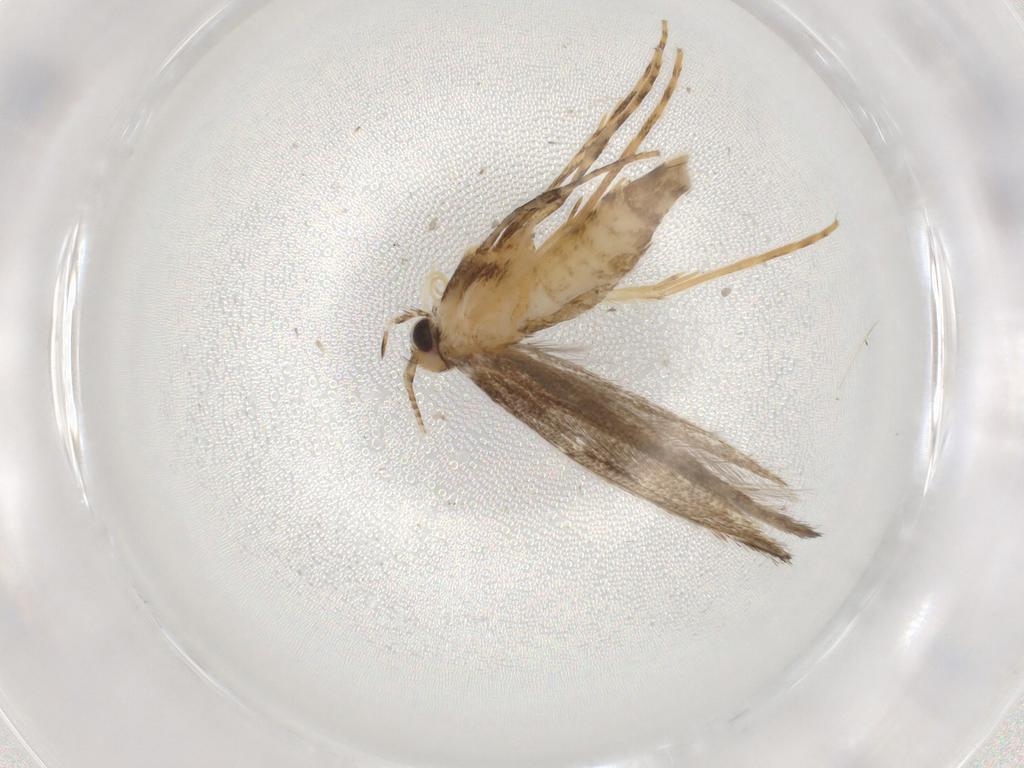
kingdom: Animalia
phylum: Arthropoda
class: Insecta
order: Lepidoptera
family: Gracillariidae
